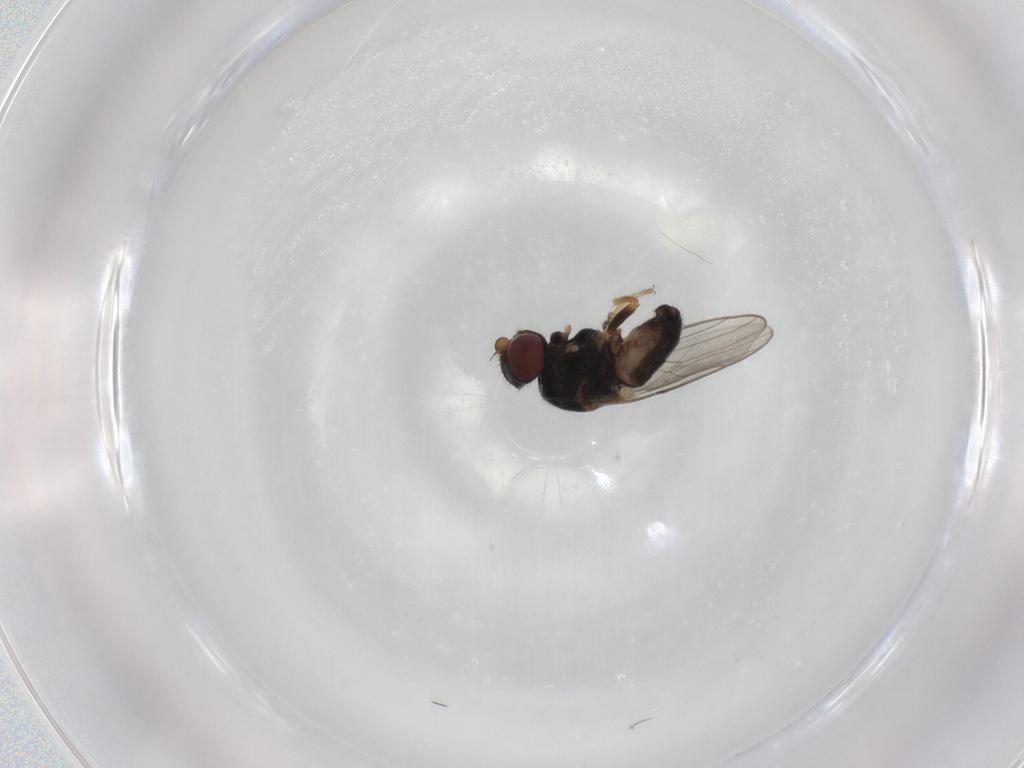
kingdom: Animalia
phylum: Arthropoda
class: Insecta
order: Diptera
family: Chloropidae
